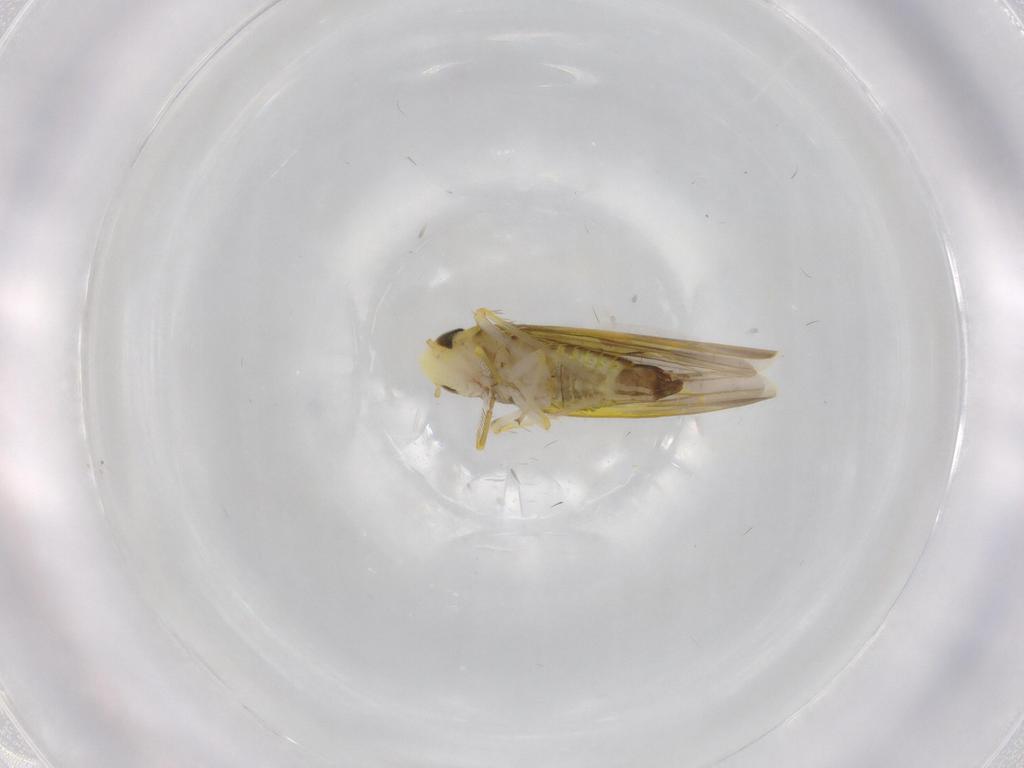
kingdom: Animalia
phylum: Arthropoda
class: Insecta
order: Hemiptera
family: Cicadellidae
